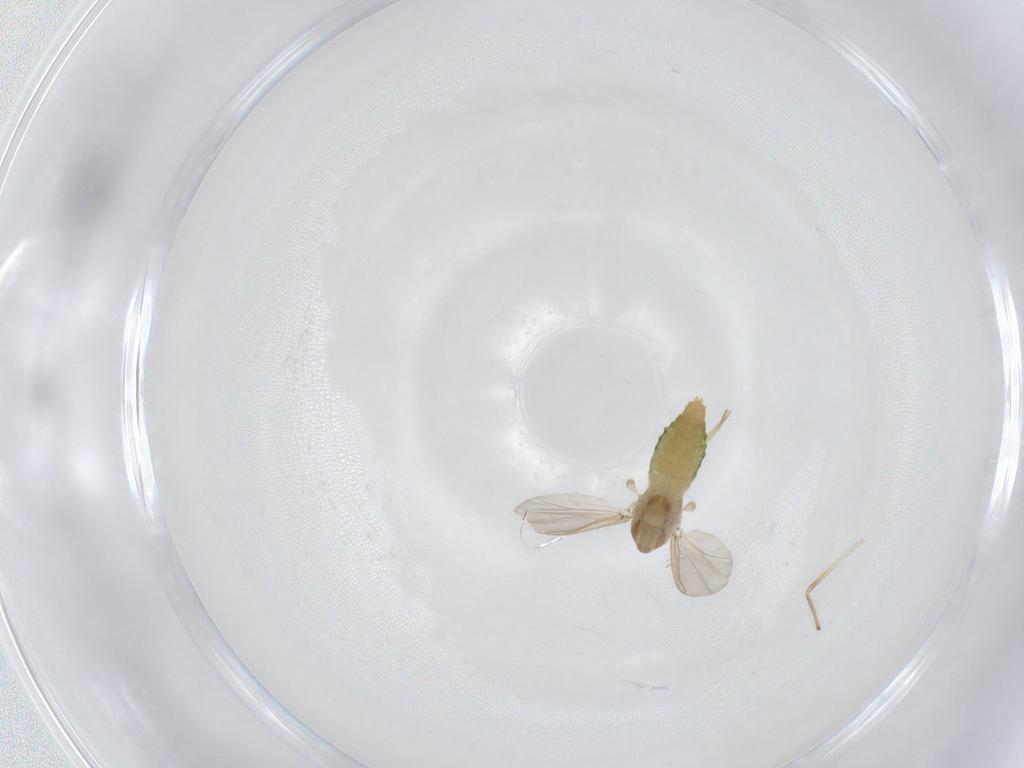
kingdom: Animalia
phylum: Arthropoda
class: Insecta
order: Diptera
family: Chironomidae
